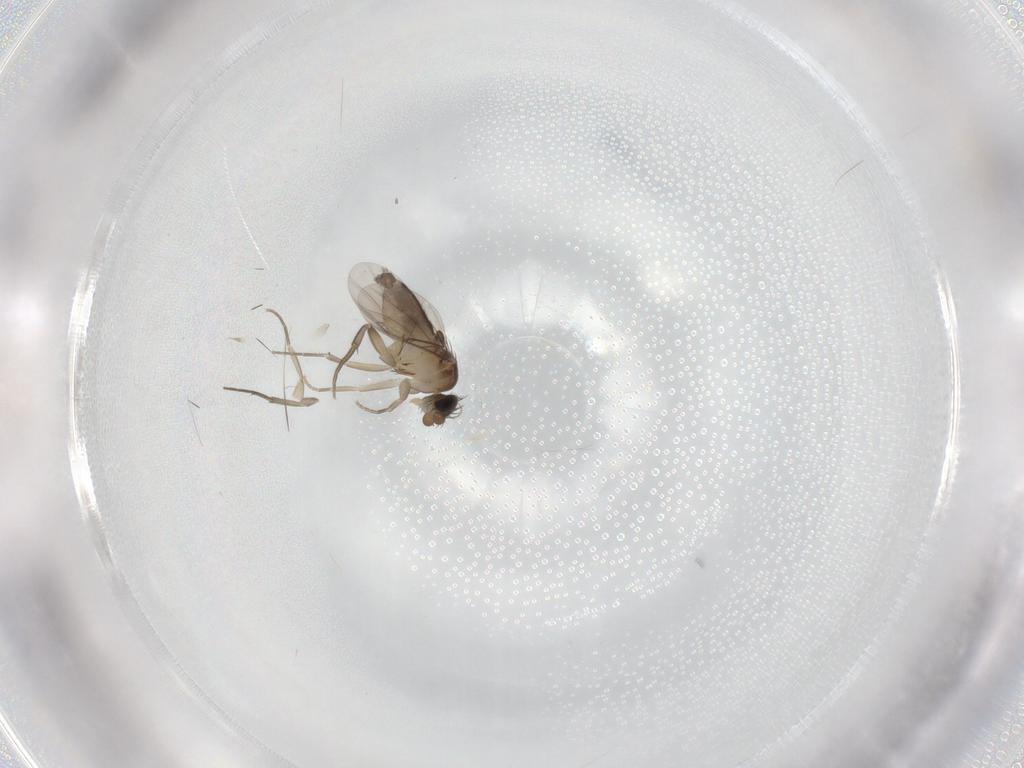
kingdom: Animalia
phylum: Arthropoda
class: Insecta
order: Diptera
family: Phoridae
